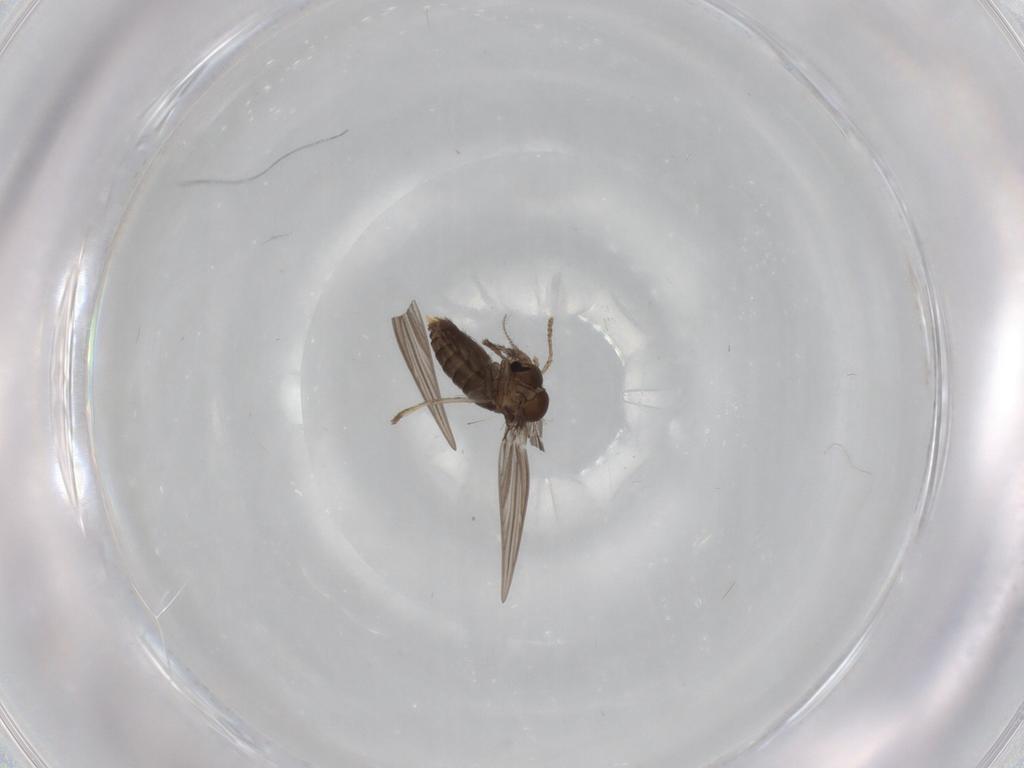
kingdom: Animalia
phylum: Arthropoda
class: Insecta
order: Diptera
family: Psychodidae
